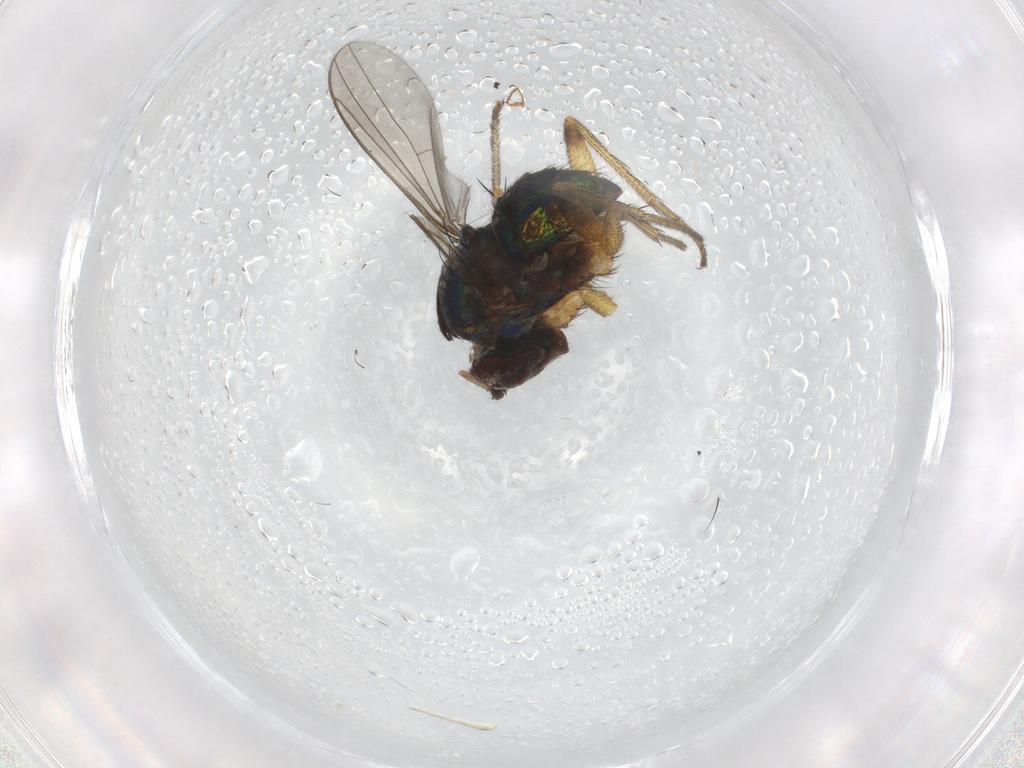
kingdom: Animalia
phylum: Arthropoda
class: Insecta
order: Diptera
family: Dolichopodidae
